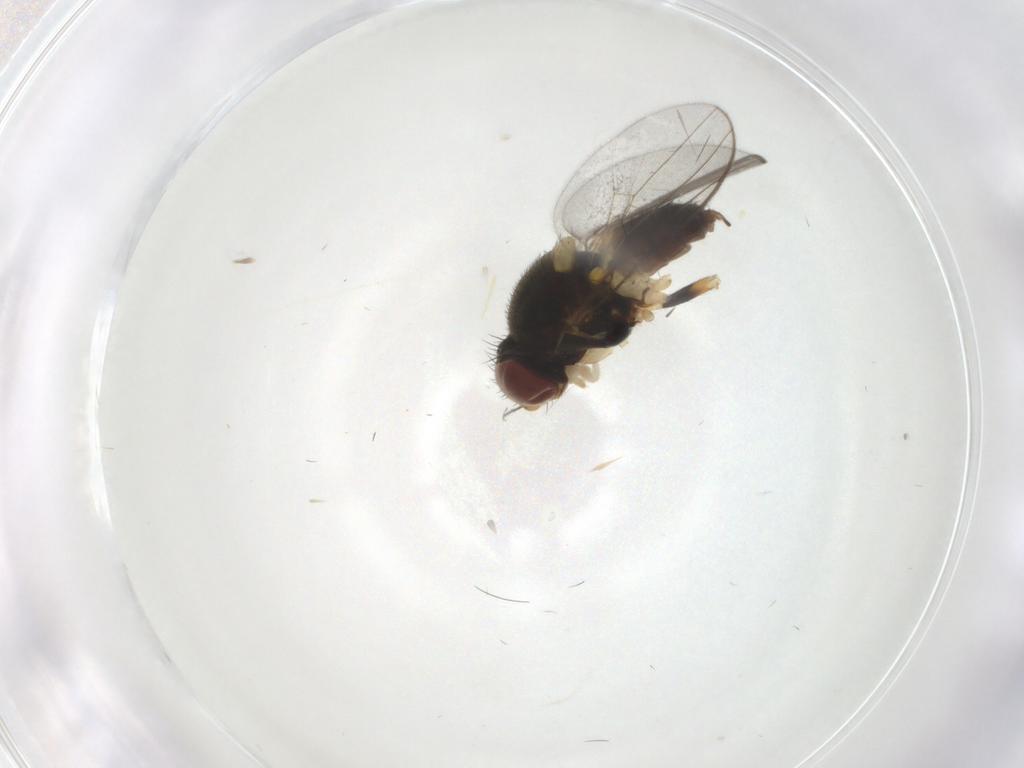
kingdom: Animalia
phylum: Arthropoda
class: Insecta
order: Diptera
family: Chloropidae
